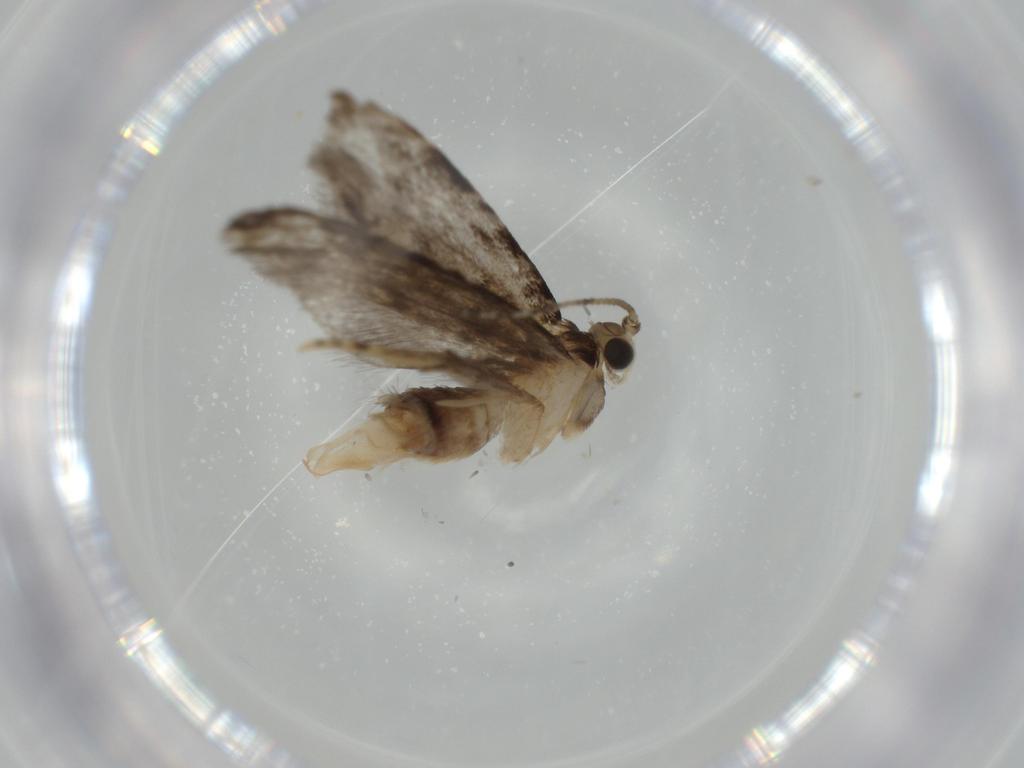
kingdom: Animalia
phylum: Arthropoda
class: Insecta
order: Lepidoptera
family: Tineidae
